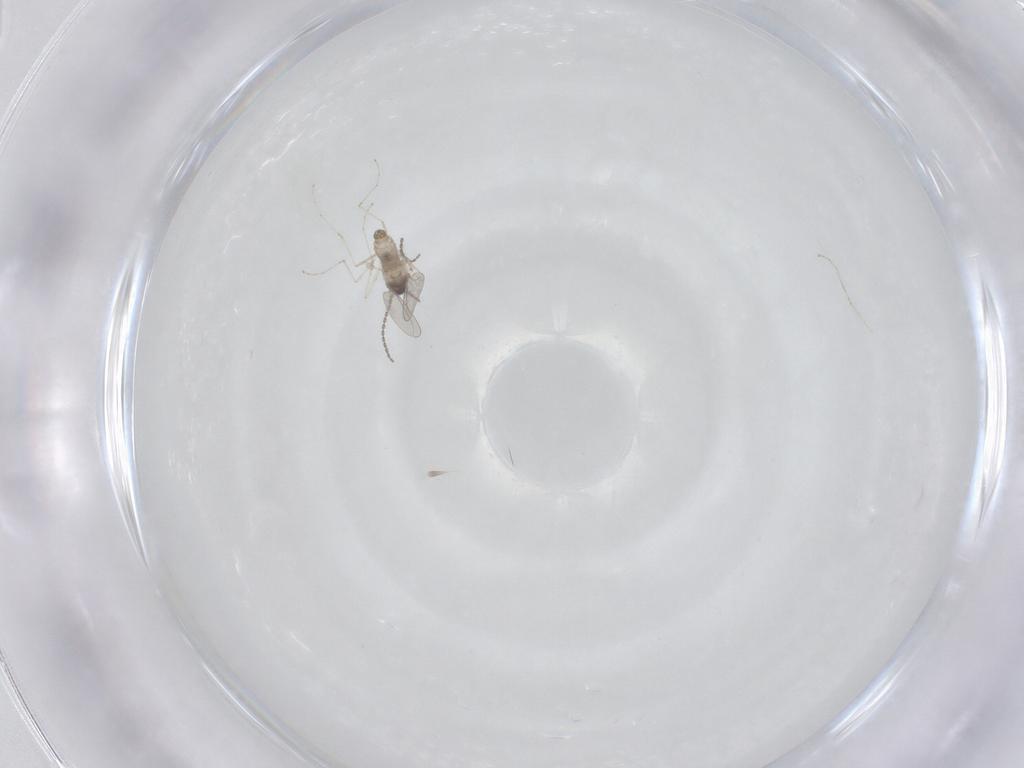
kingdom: Animalia
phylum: Arthropoda
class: Insecta
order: Diptera
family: Cecidomyiidae
